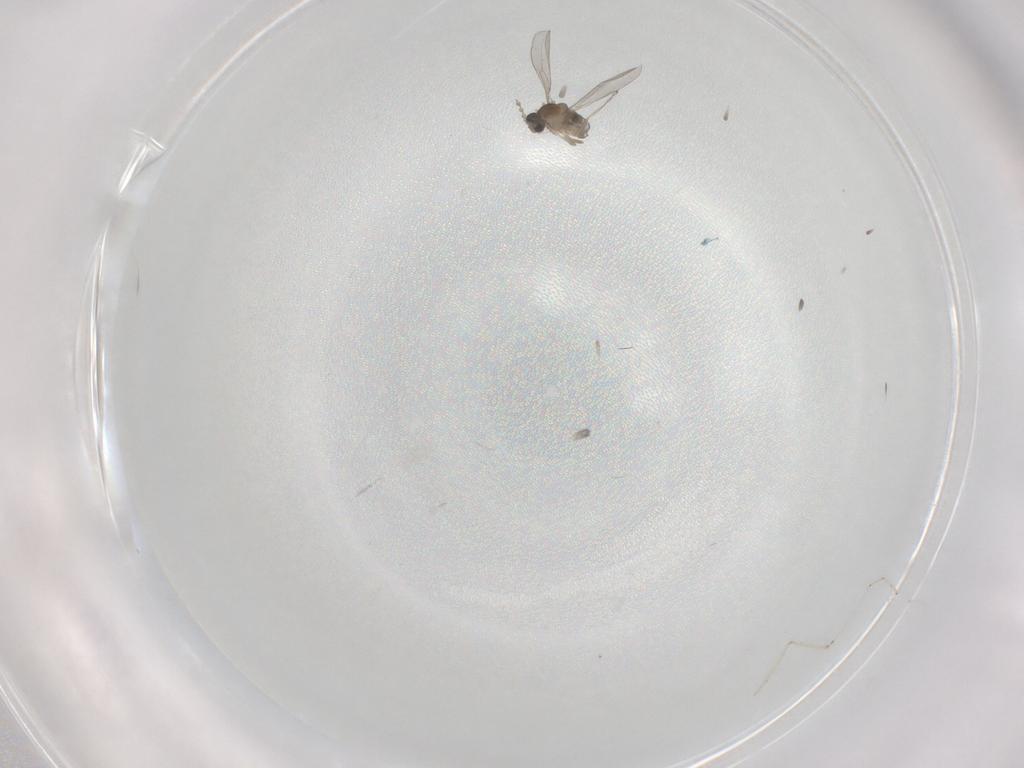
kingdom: Animalia
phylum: Arthropoda
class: Insecta
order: Diptera
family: Cecidomyiidae
